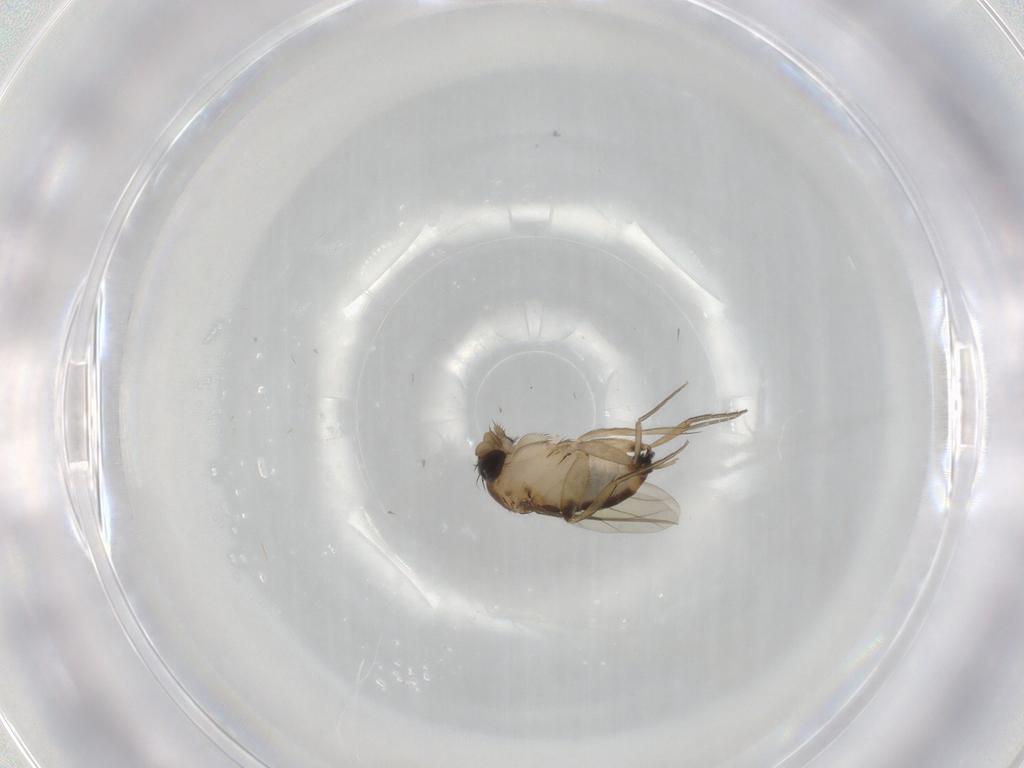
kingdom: Animalia
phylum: Arthropoda
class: Insecta
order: Diptera
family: Phoridae
